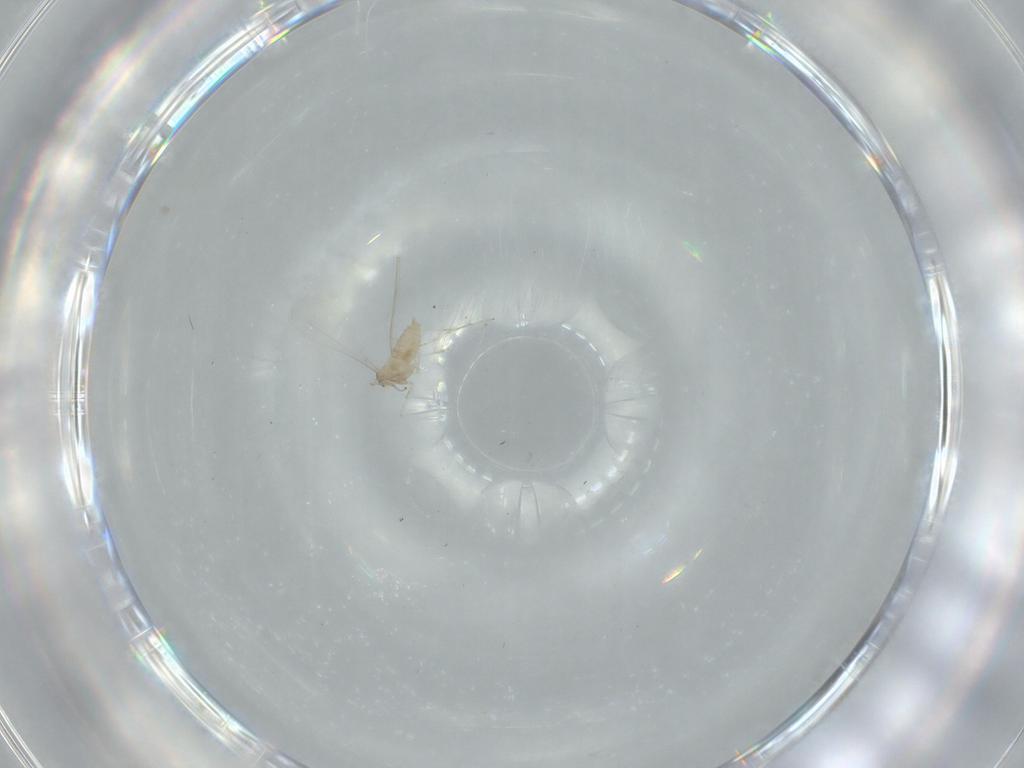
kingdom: Animalia
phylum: Arthropoda
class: Insecta
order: Diptera
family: Cecidomyiidae
